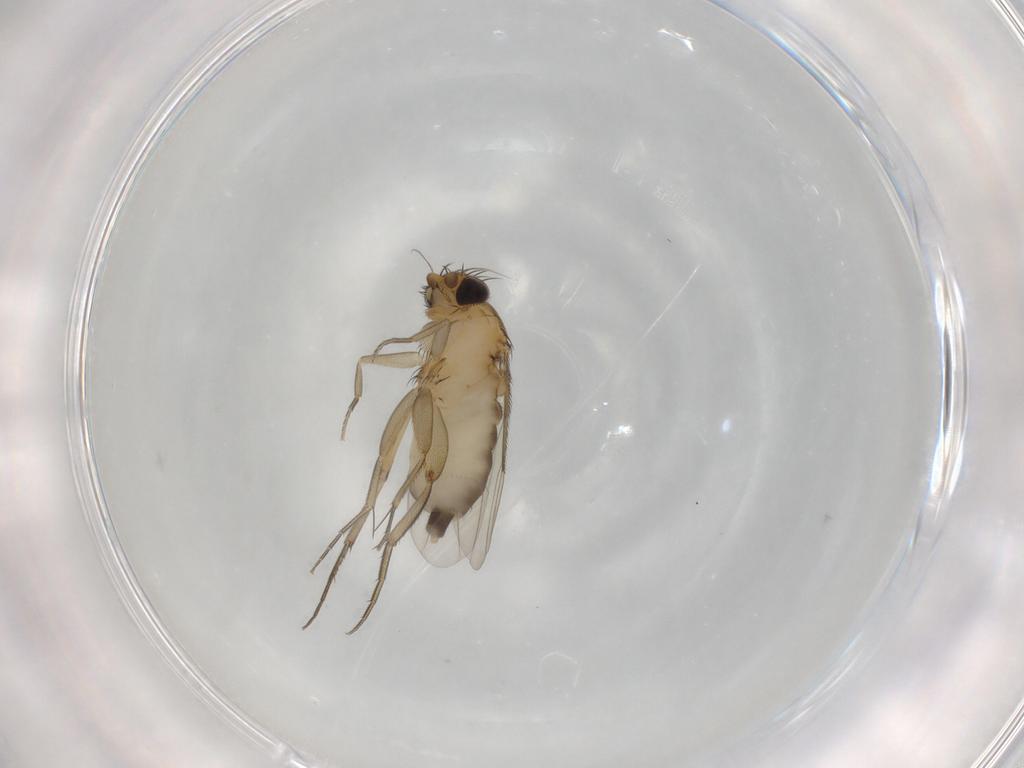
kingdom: Animalia
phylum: Arthropoda
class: Insecta
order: Diptera
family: Phoridae
